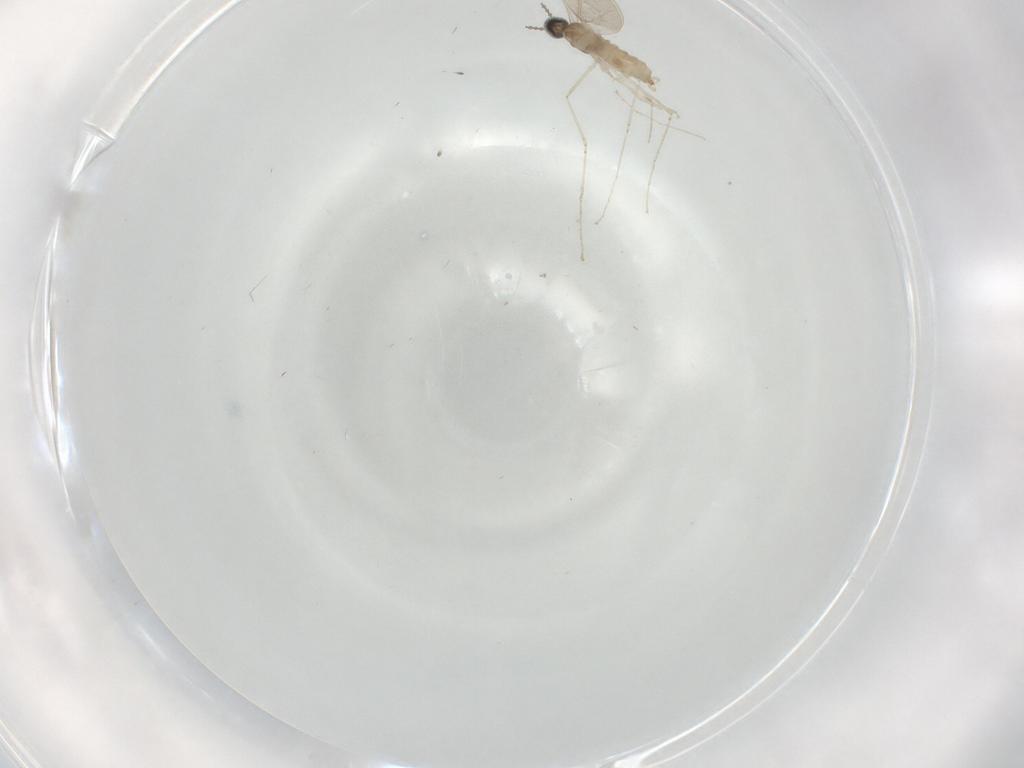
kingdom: Animalia
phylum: Arthropoda
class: Insecta
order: Diptera
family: Cecidomyiidae
